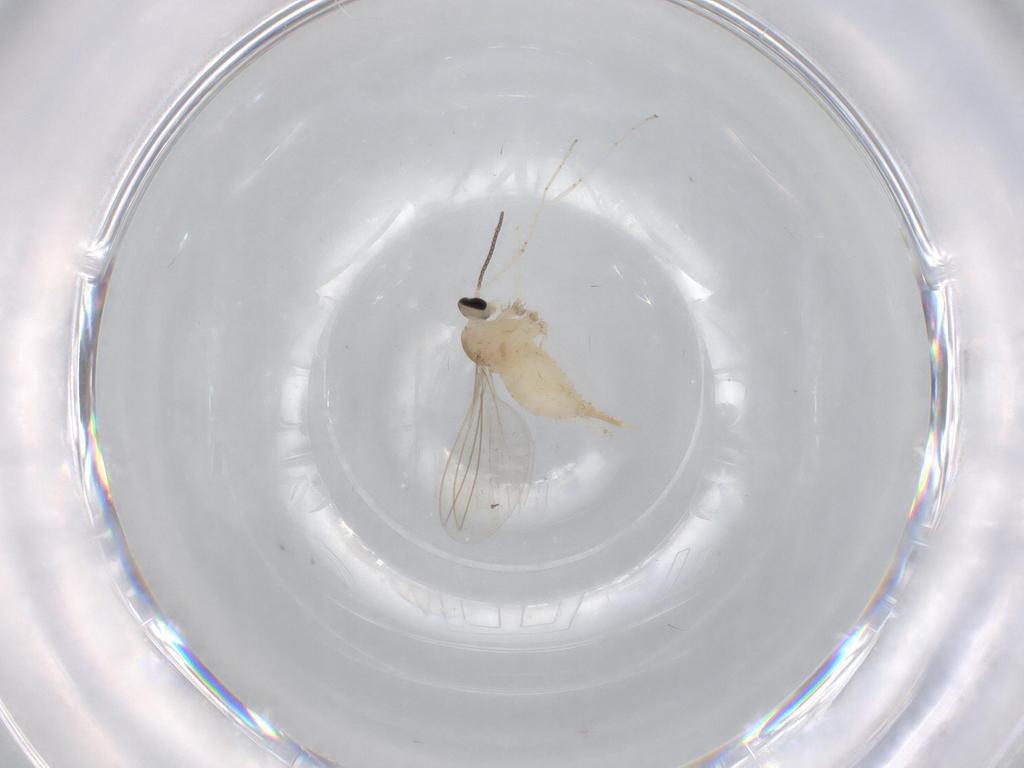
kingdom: Animalia
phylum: Arthropoda
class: Insecta
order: Diptera
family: Cecidomyiidae
